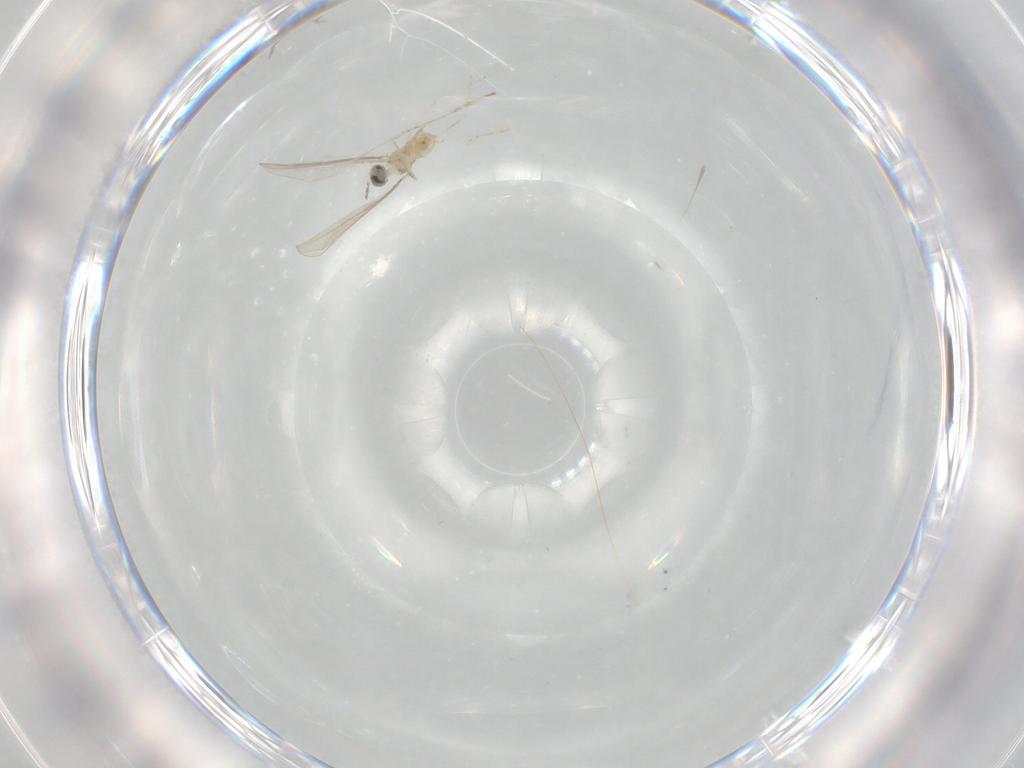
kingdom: Animalia
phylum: Arthropoda
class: Insecta
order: Diptera
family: Cecidomyiidae
